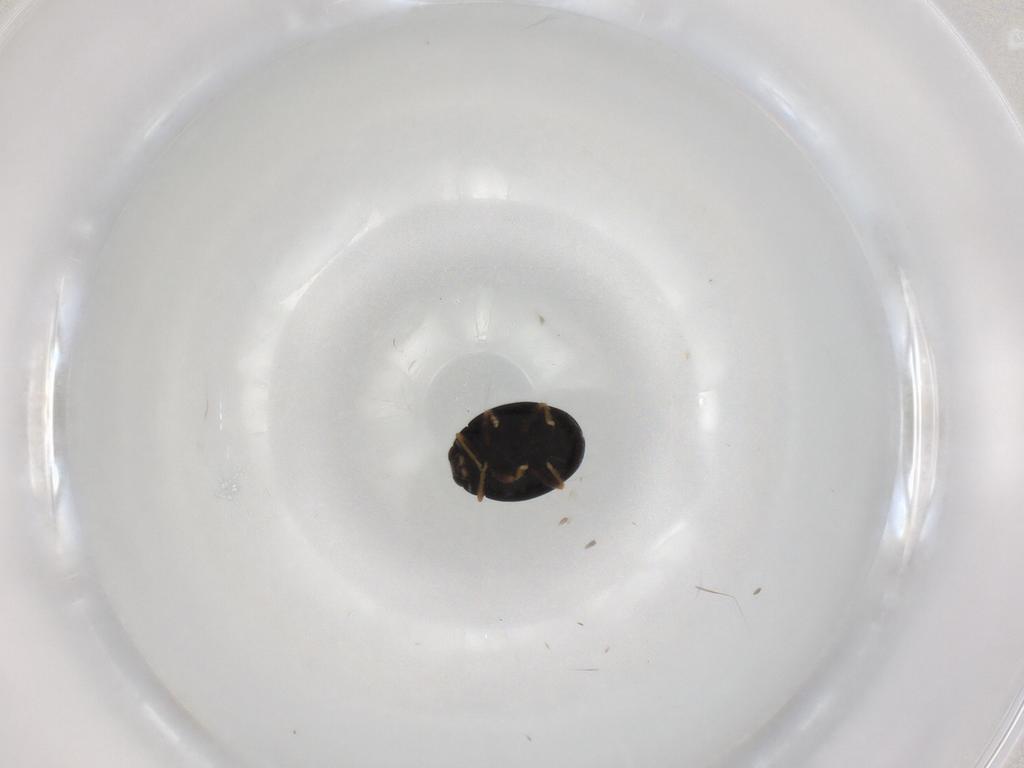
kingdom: Animalia
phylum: Arthropoda
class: Insecta
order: Coleoptera
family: Coccinellidae
